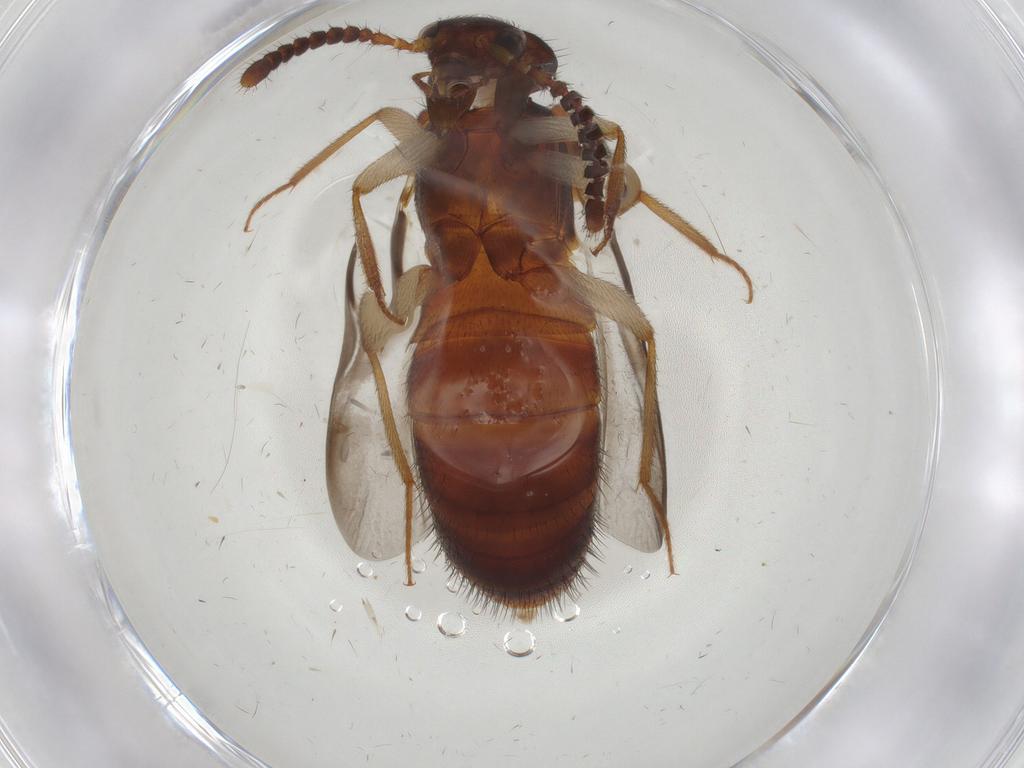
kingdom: Animalia
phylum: Arthropoda
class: Insecta
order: Coleoptera
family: Staphylinidae
